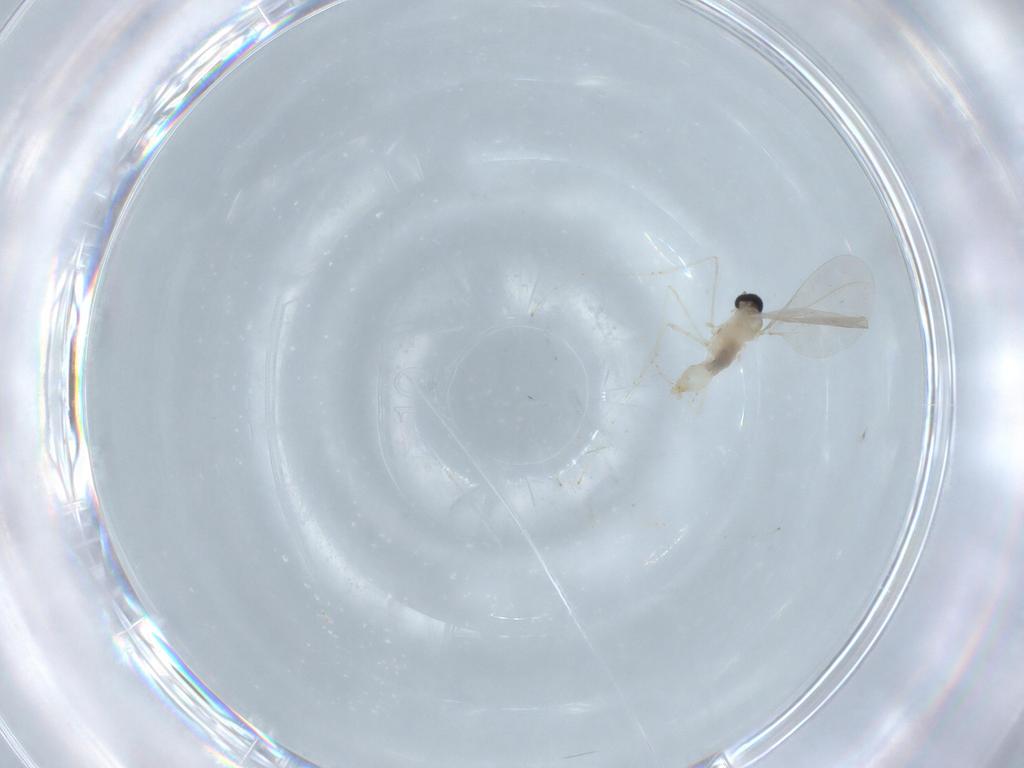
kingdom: Animalia
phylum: Arthropoda
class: Insecta
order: Diptera
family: Cecidomyiidae
